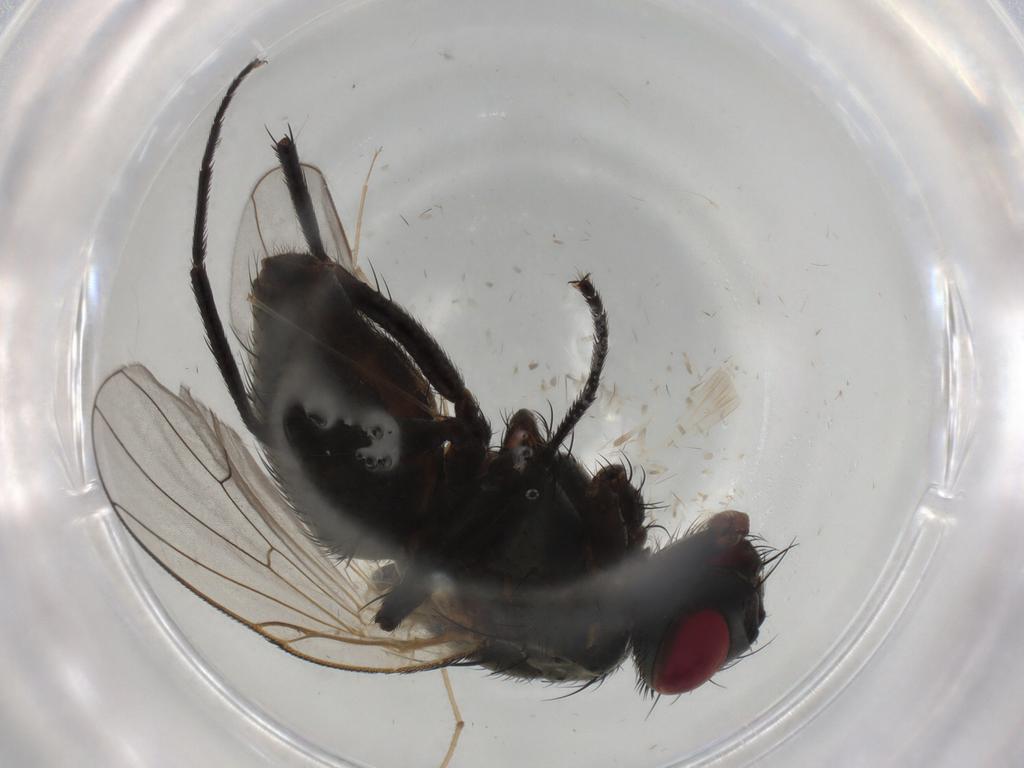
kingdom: Animalia
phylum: Arthropoda
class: Insecta
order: Diptera
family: Muscidae
